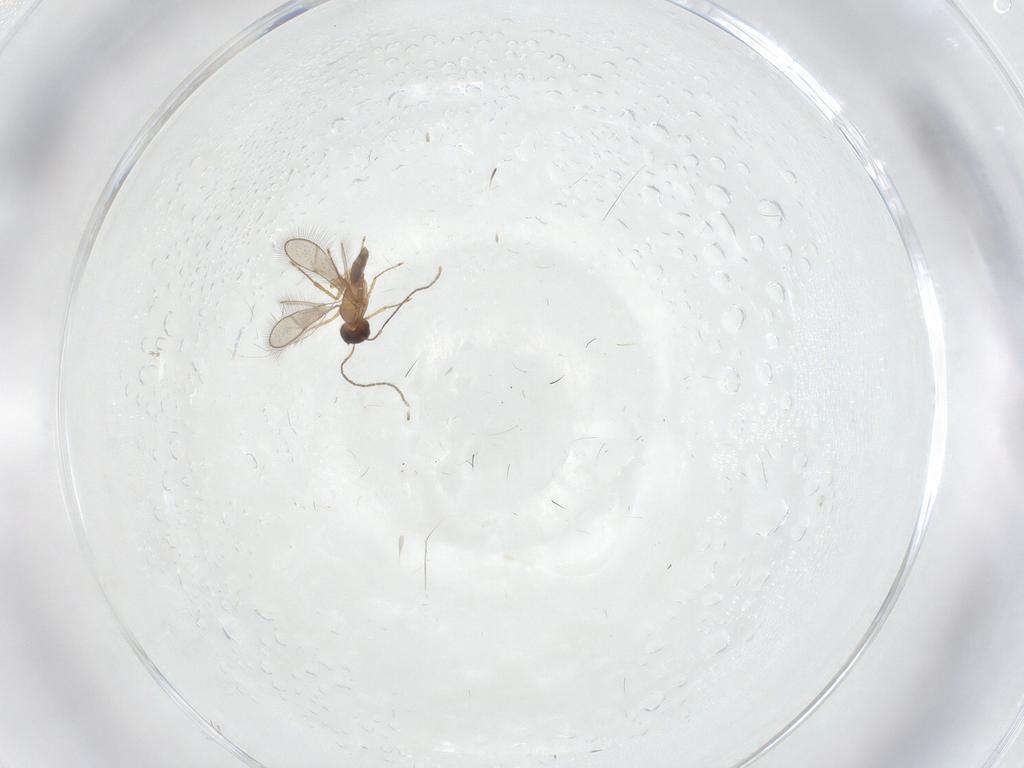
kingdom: Animalia
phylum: Arthropoda
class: Insecta
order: Hymenoptera
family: Mymaridae
